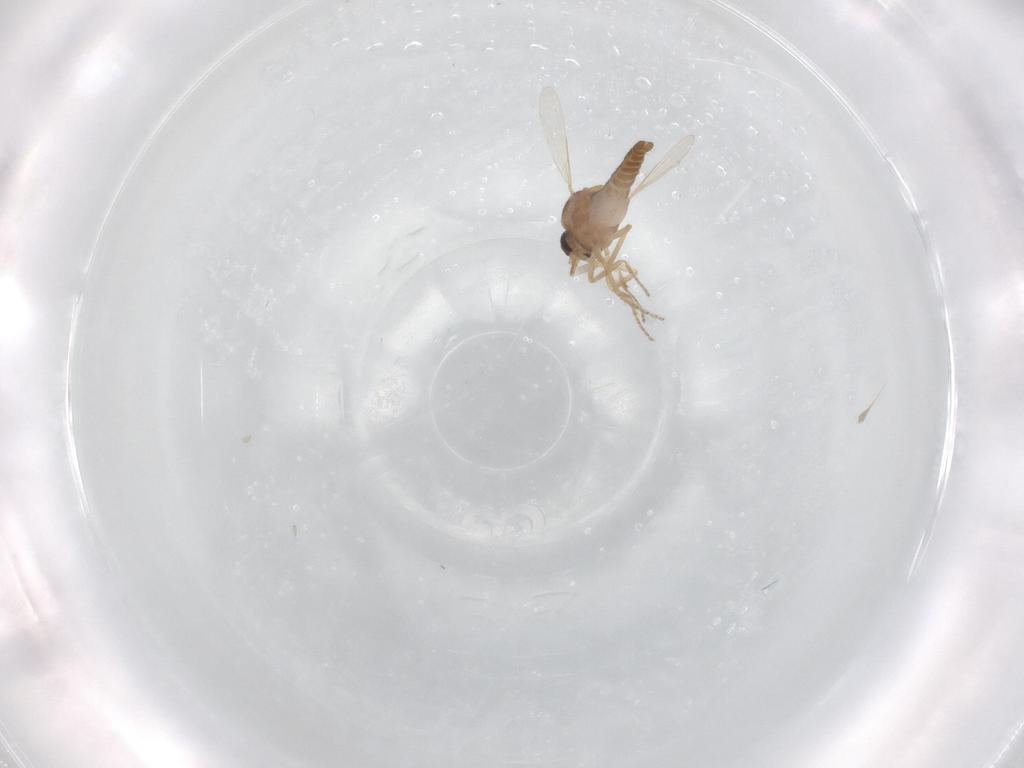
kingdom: Animalia
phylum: Arthropoda
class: Insecta
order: Diptera
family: Ceratopogonidae
